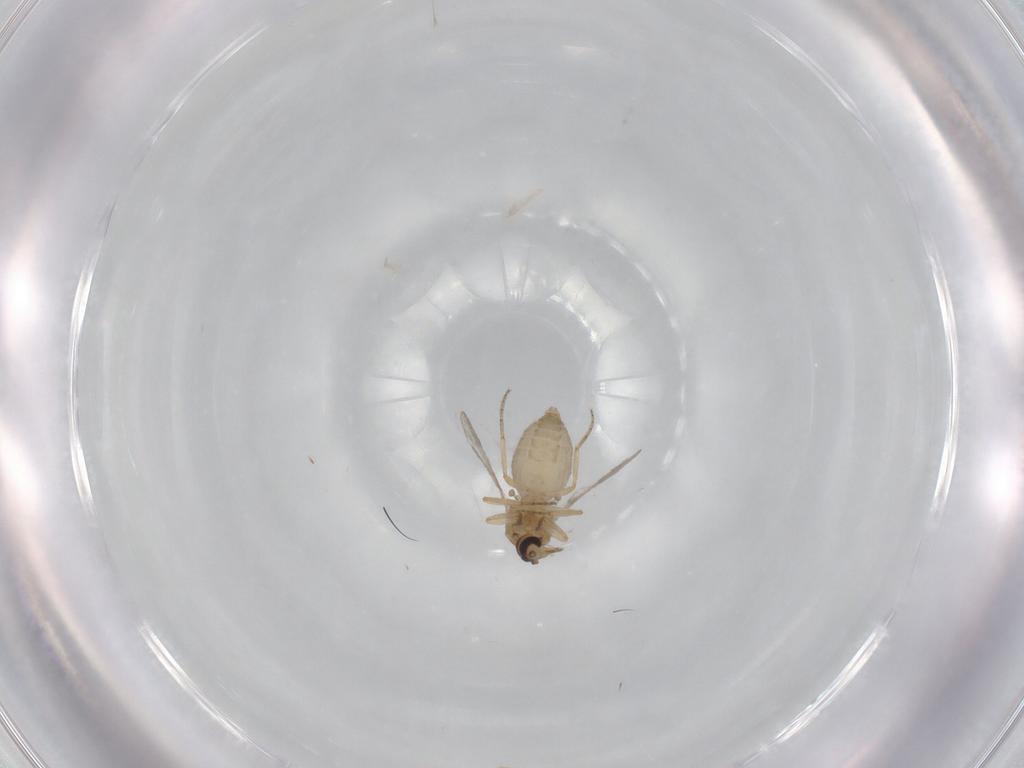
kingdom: Animalia
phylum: Arthropoda
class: Insecta
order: Diptera
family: Ceratopogonidae
